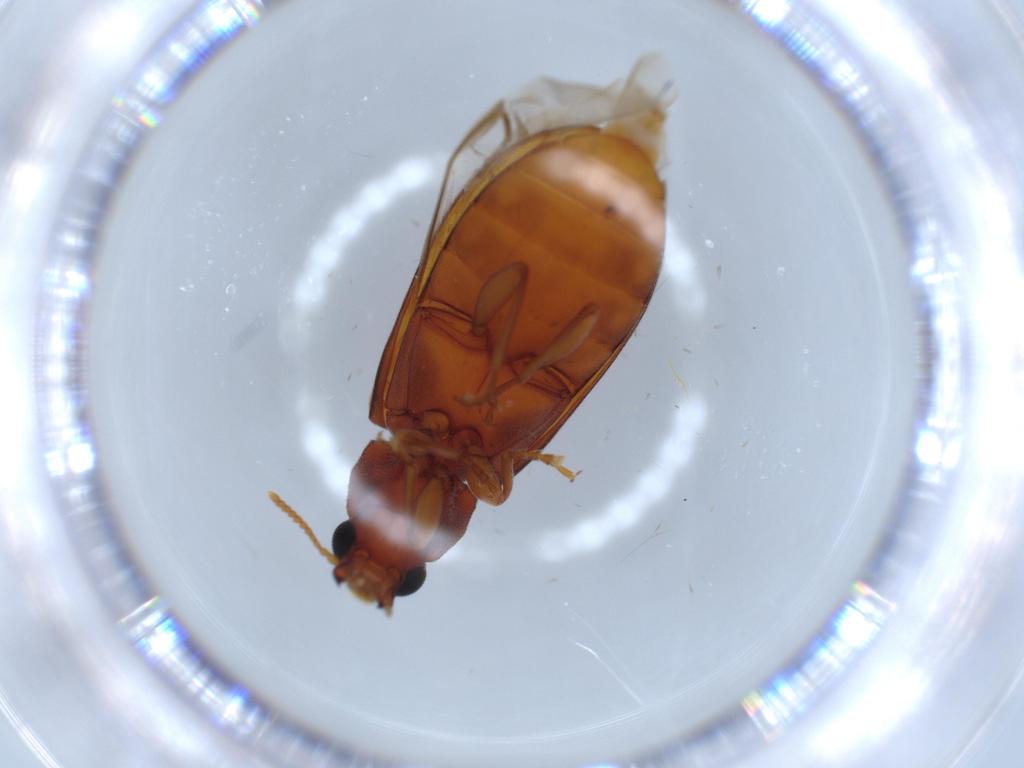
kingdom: Animalia
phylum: Arthropoda
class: Insecta
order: Coleoptera
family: Mycteridae
